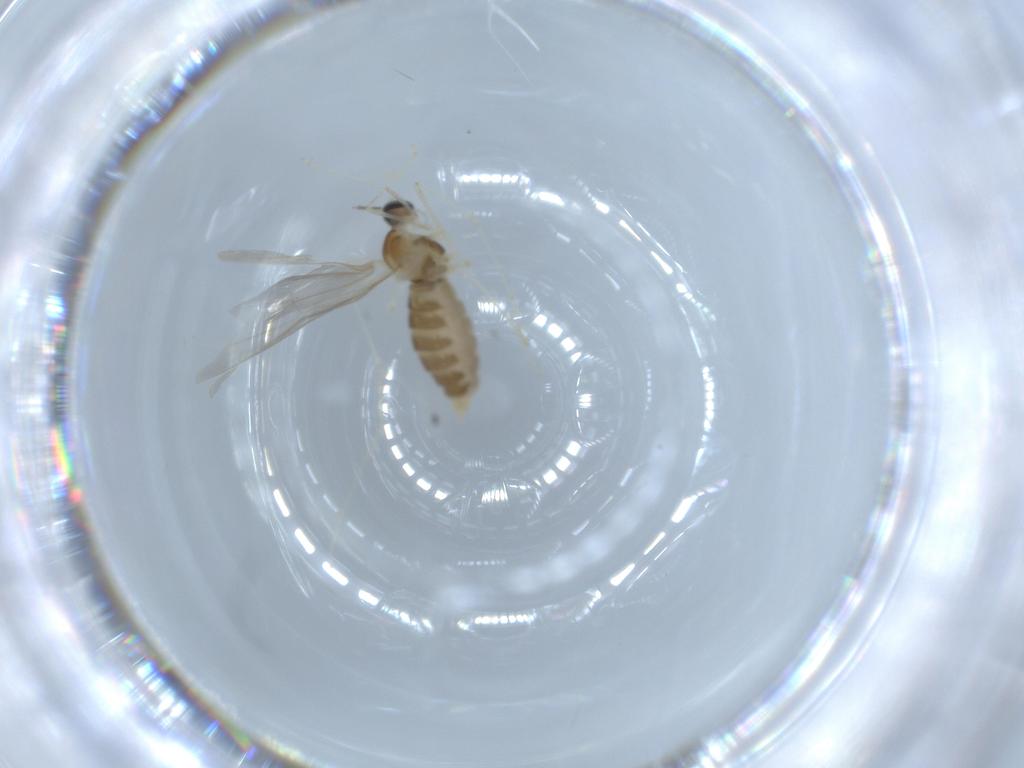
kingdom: Animalia
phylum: Arthropoda
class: Insecta
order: Diptera
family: Cecidomyiidae
